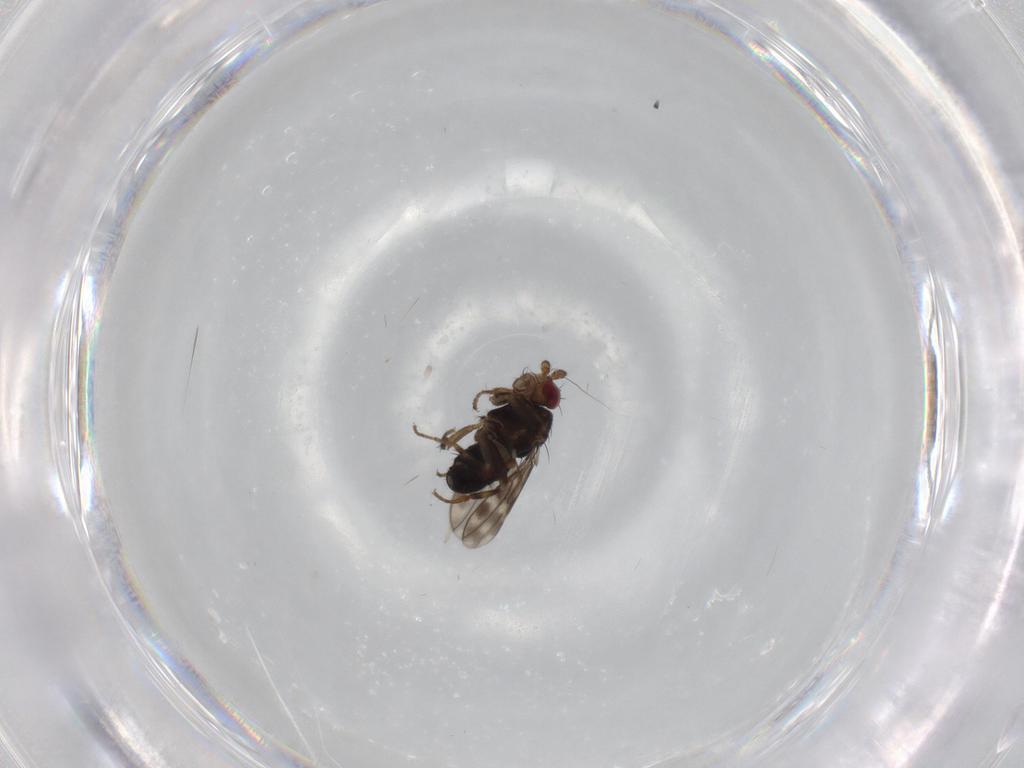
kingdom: Animalia
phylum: Arthropoda
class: Insecta
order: Diptera
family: Sphaeroceridae
